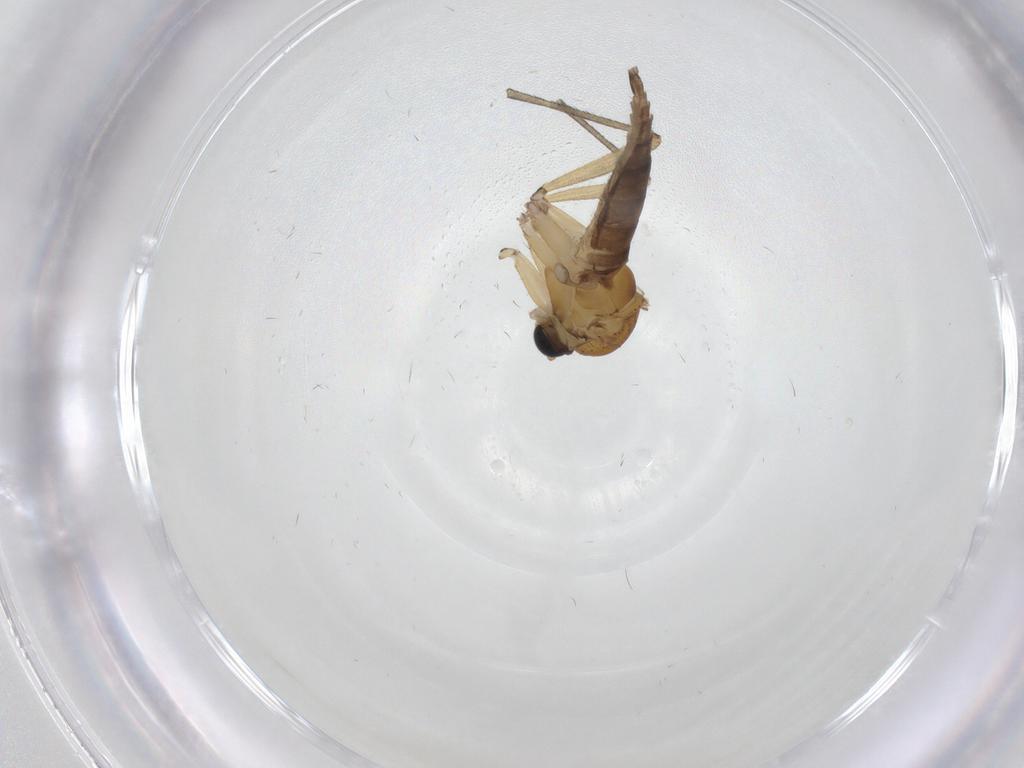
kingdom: Animalia
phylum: Arthropoda
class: Insecta
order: Diptera
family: Sciaridae
